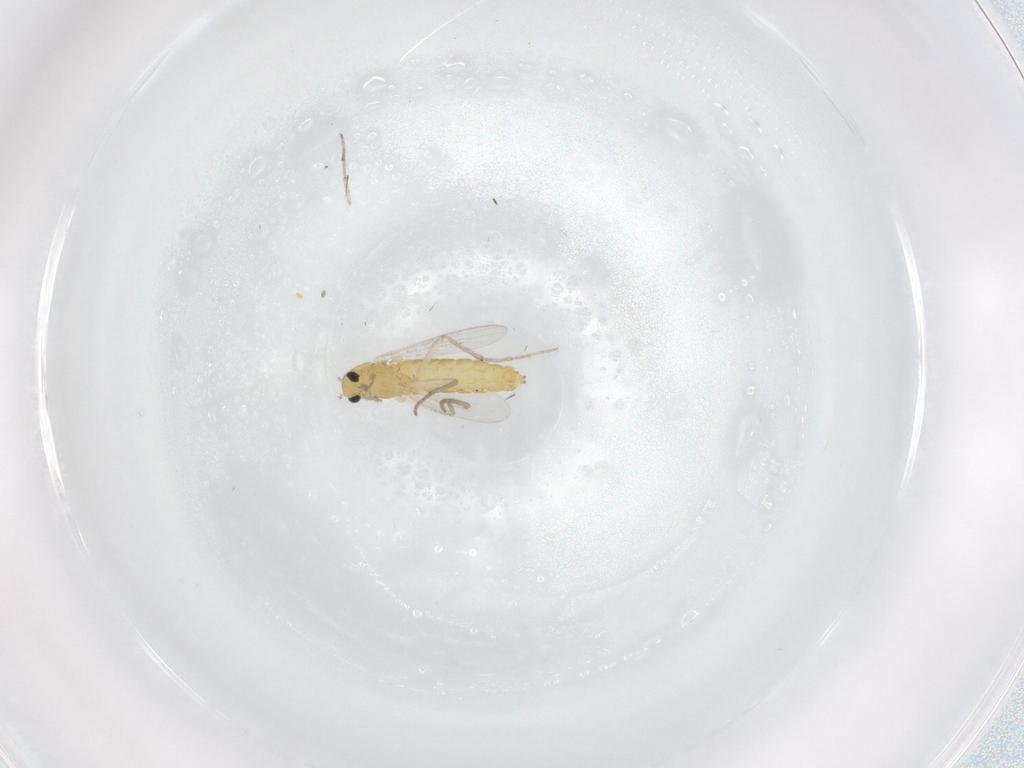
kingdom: Animalia
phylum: Arthropoda
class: Insecta
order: Diptera
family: Chironomidae
